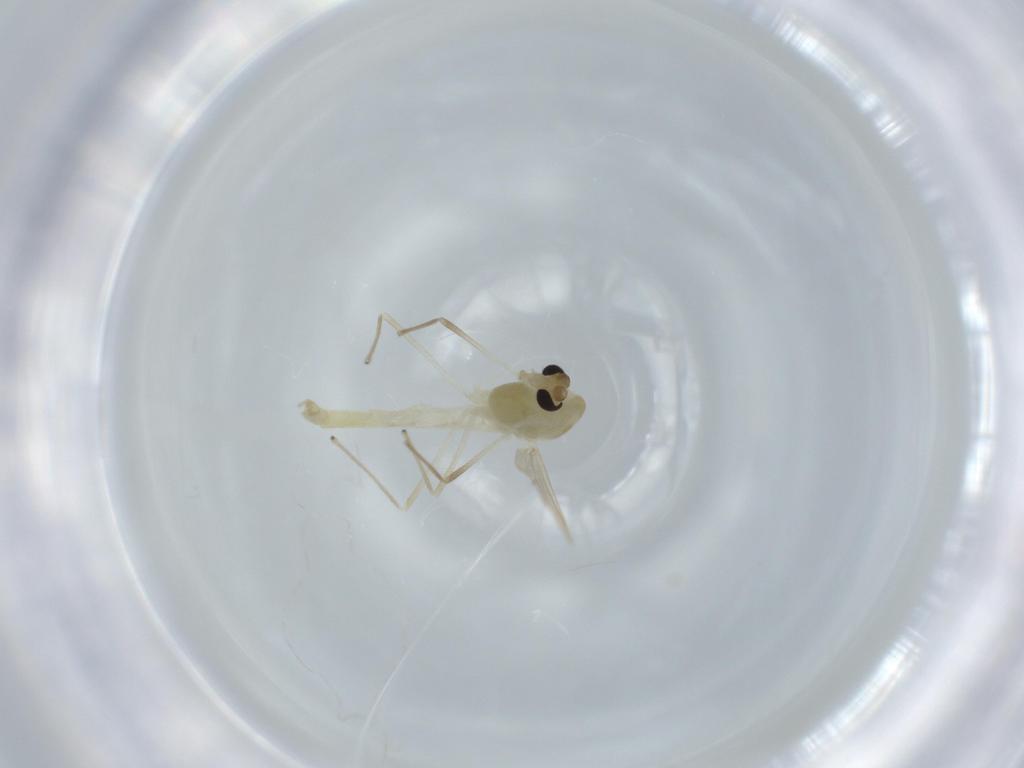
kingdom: Animalia
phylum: Arthropoda
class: Insecta
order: Diptera
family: Chironomidae
